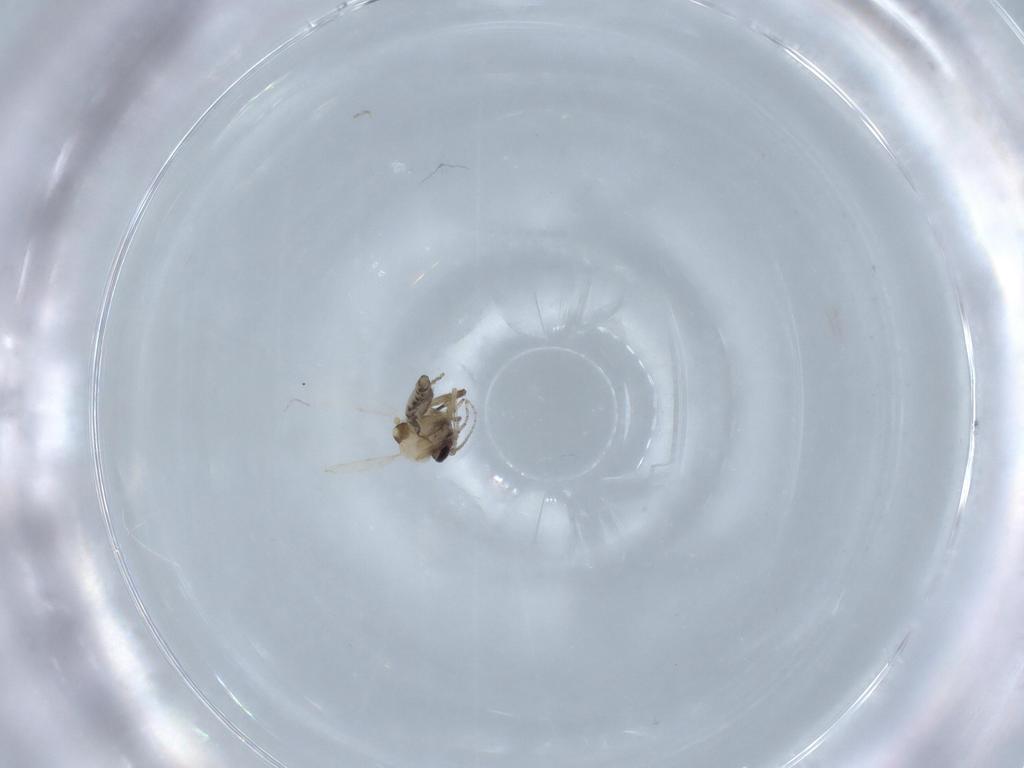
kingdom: Animalia
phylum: Arthropoda
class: Insecta
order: Diptera
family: Chironomidae
